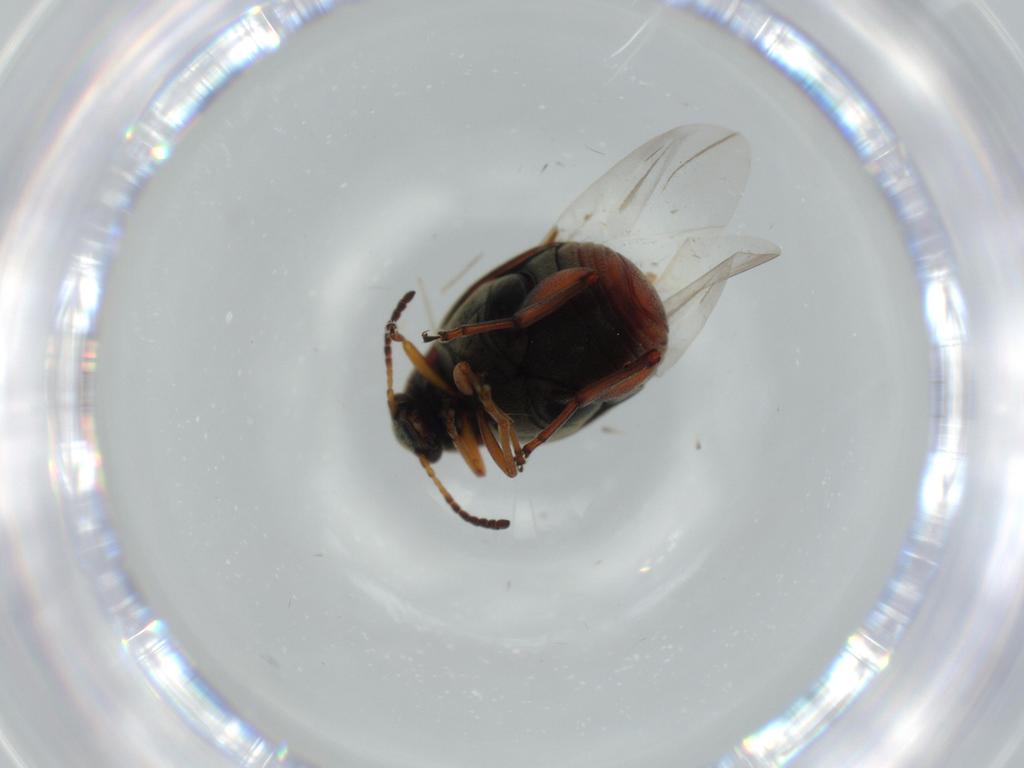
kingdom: Animalia
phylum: Arthropoda
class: Insecta
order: Coleoptera
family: Chrysomelidae
